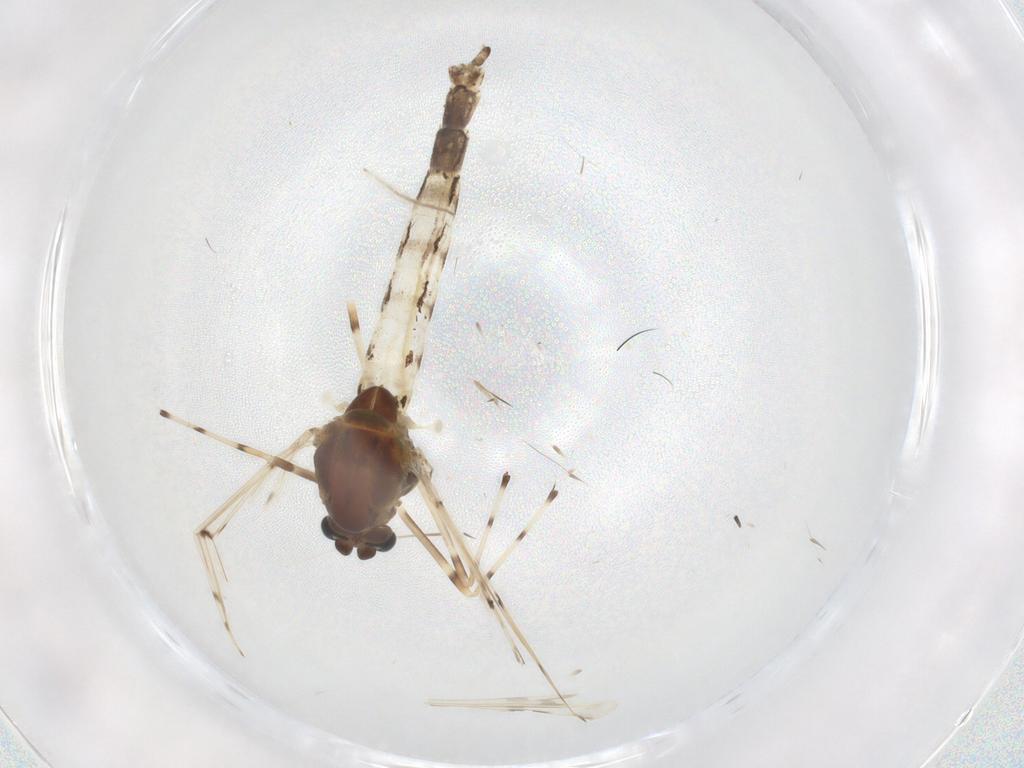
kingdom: Animalia
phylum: Arthropoda
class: Insecta
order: Diptera
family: Chironomidae
